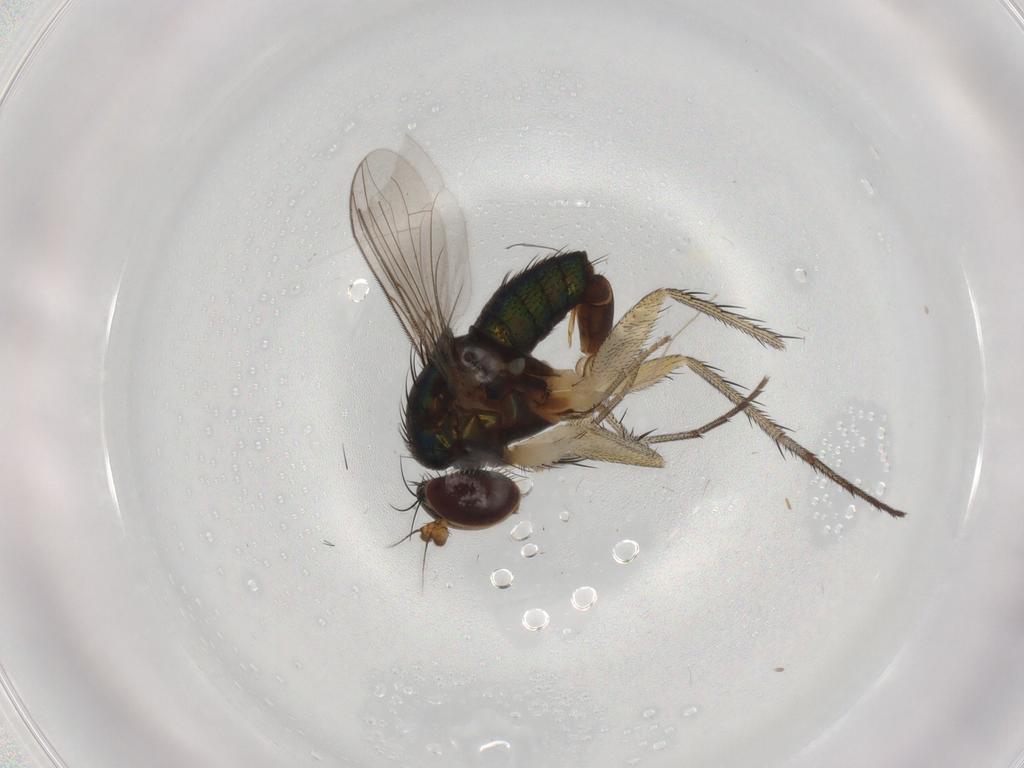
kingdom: Animalia
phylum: Arthropoda
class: Insecta
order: Diptera
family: Dolichopodidae
